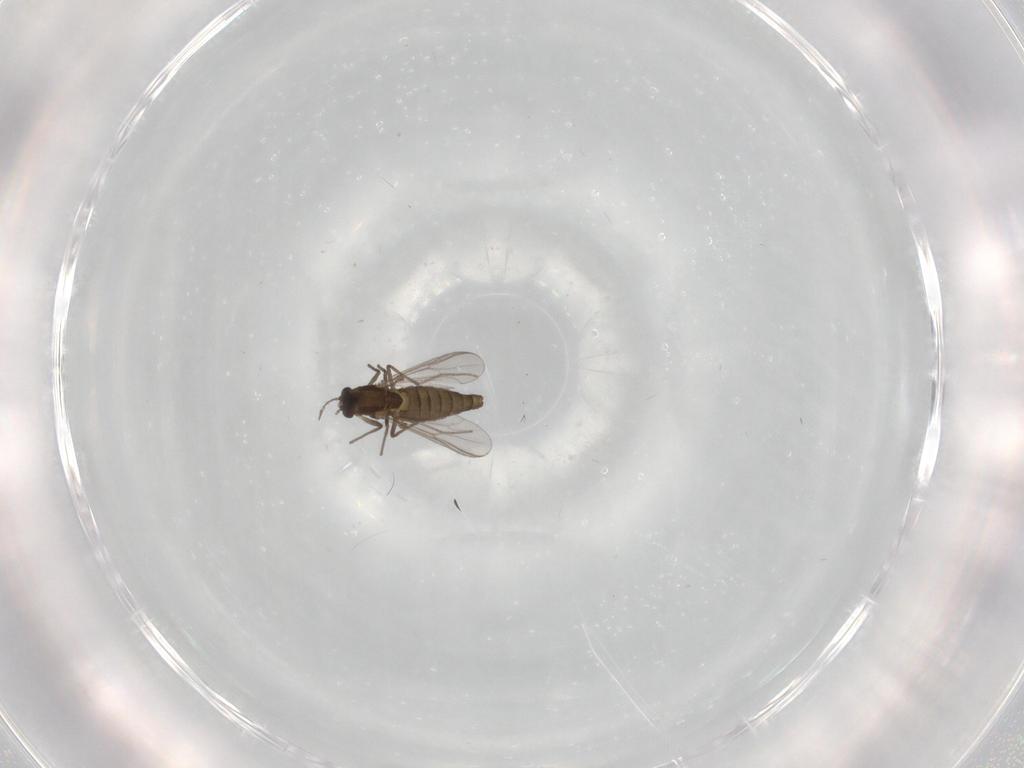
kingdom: Animalia
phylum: Arthropoda
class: Insecta
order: Diptera
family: Chironomidae
